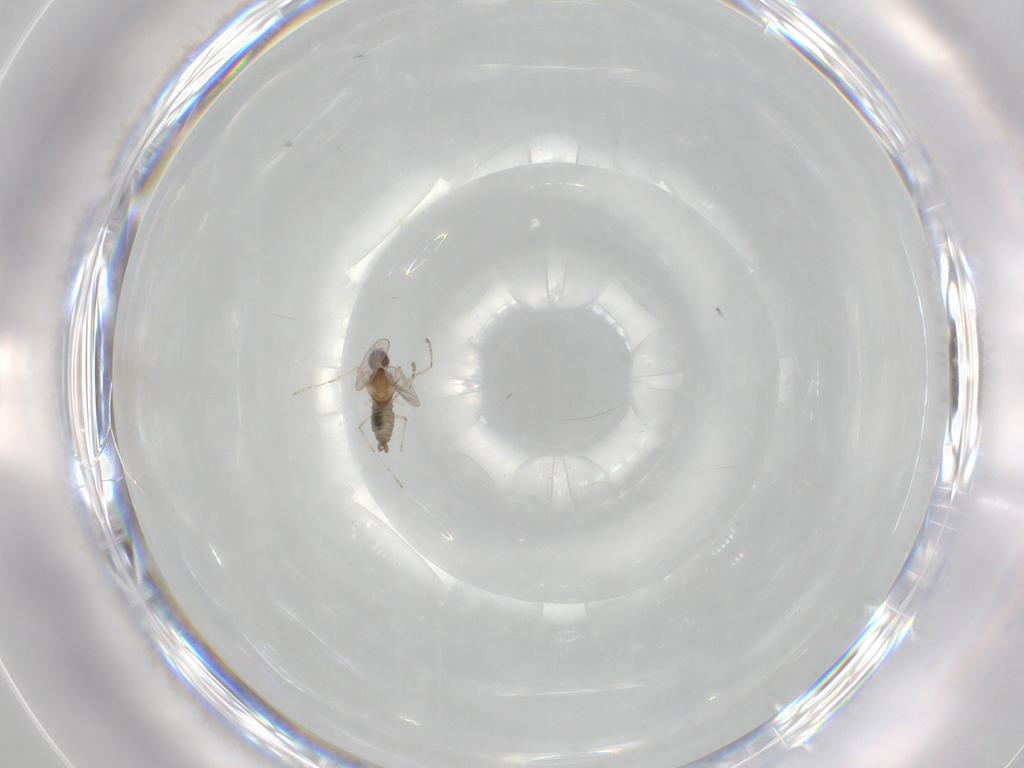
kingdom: Animalia
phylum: Arthropoda
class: Insecta
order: Diptera
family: Cecidomyiidae
